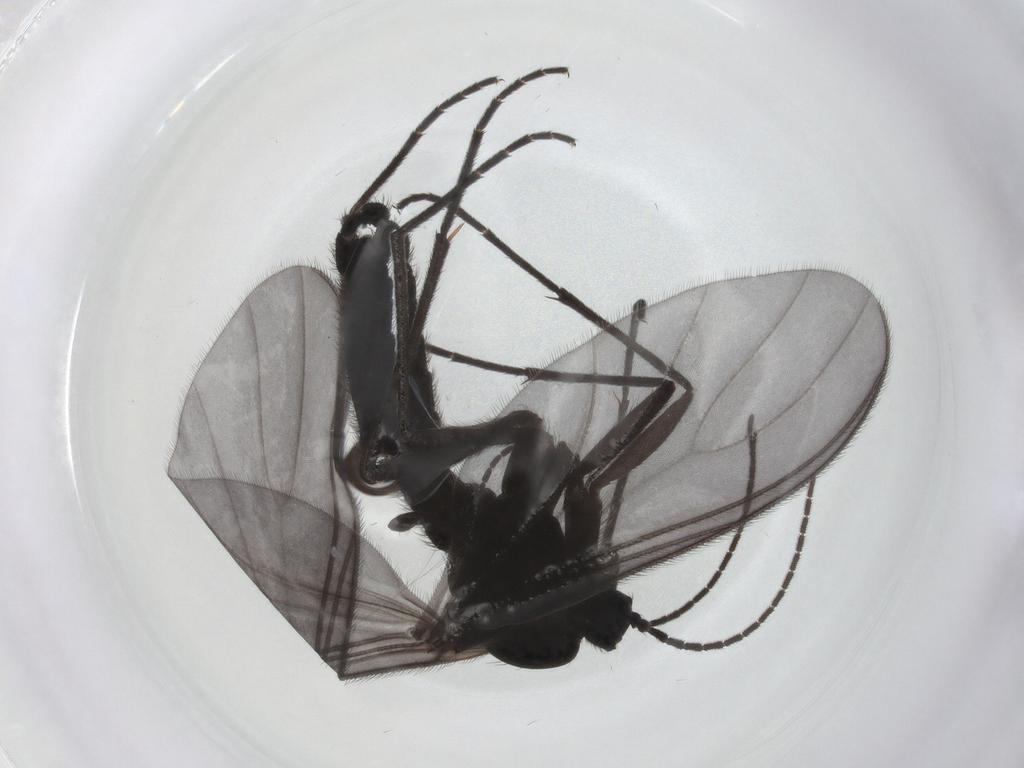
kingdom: Animalia
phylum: Arthropoda
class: Insecta
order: Diptera
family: Sciaridae
